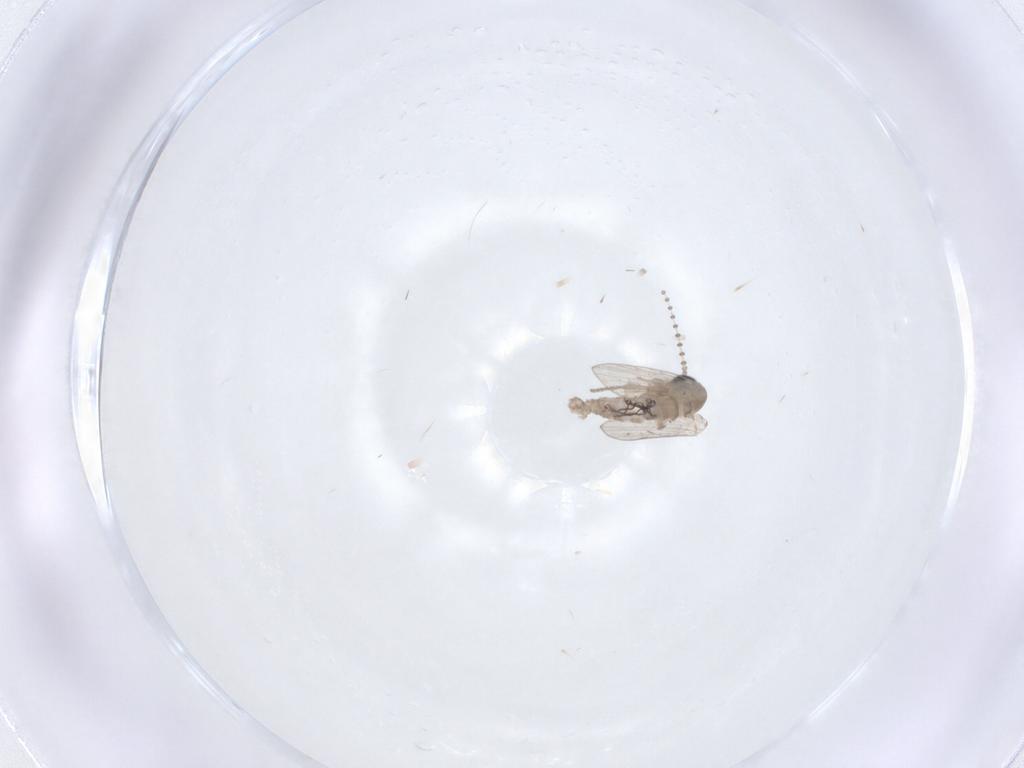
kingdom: Animalia
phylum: Arthropoda
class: Insecta
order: Diptera
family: Psychodidae
